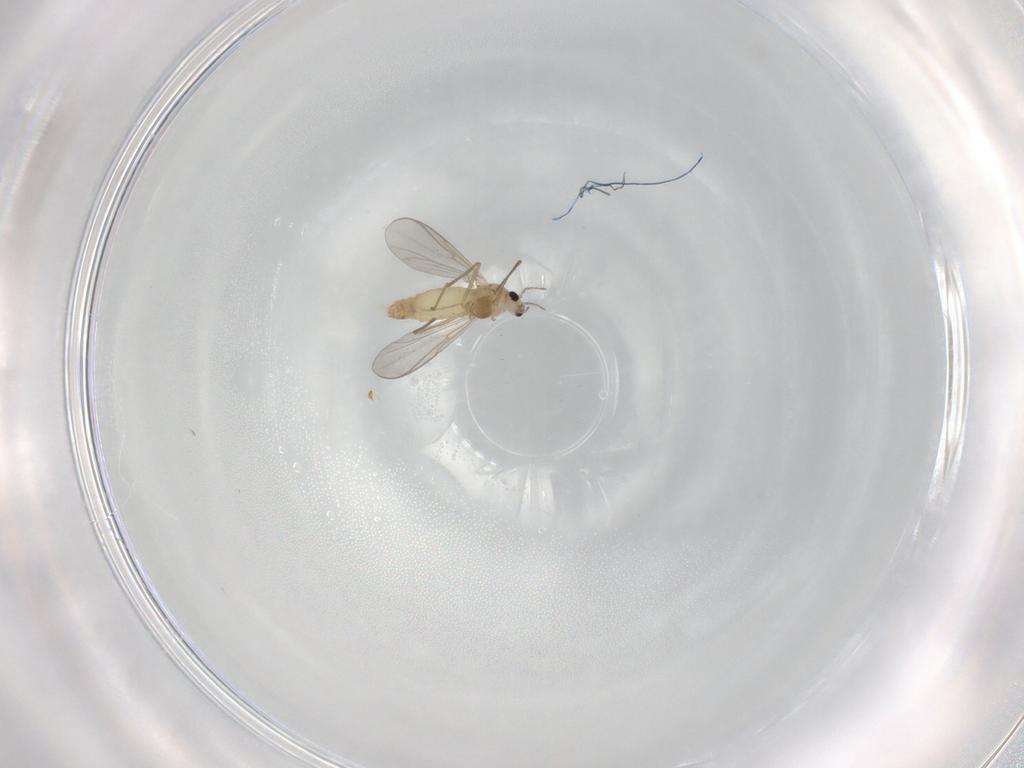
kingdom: Animalia
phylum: Arthropoda
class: Insecta
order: Diptera
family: Chironomidae
